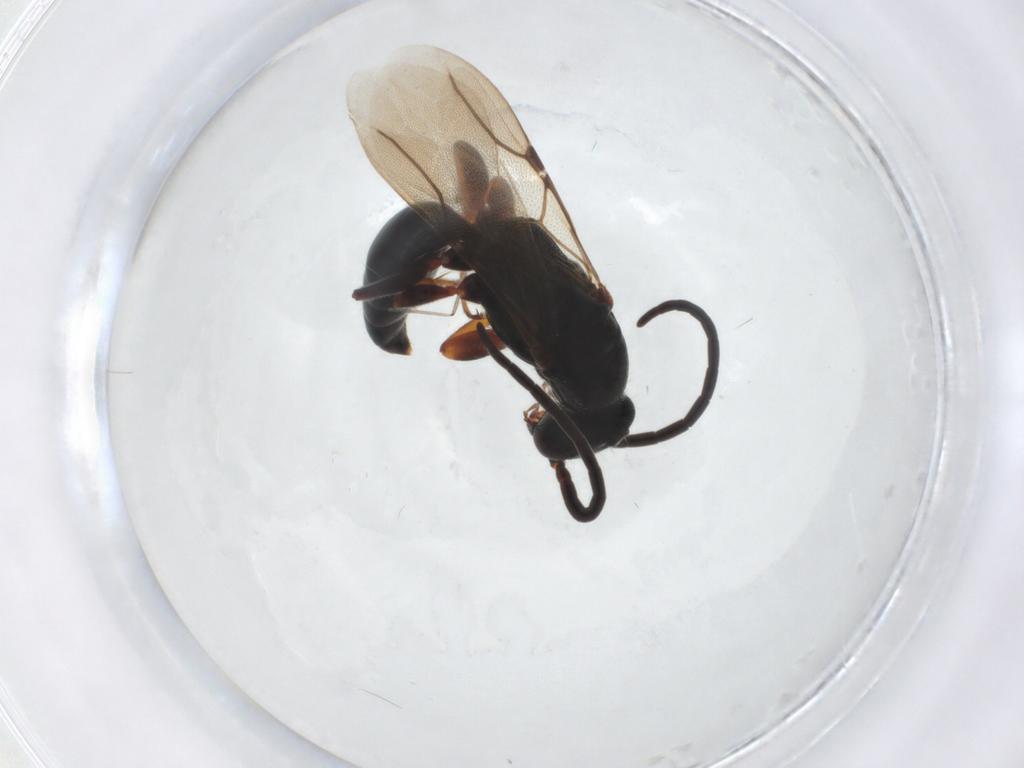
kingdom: Animalia
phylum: Arthropoda
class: Insecta
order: Hymenoptera
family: Bethylidae
